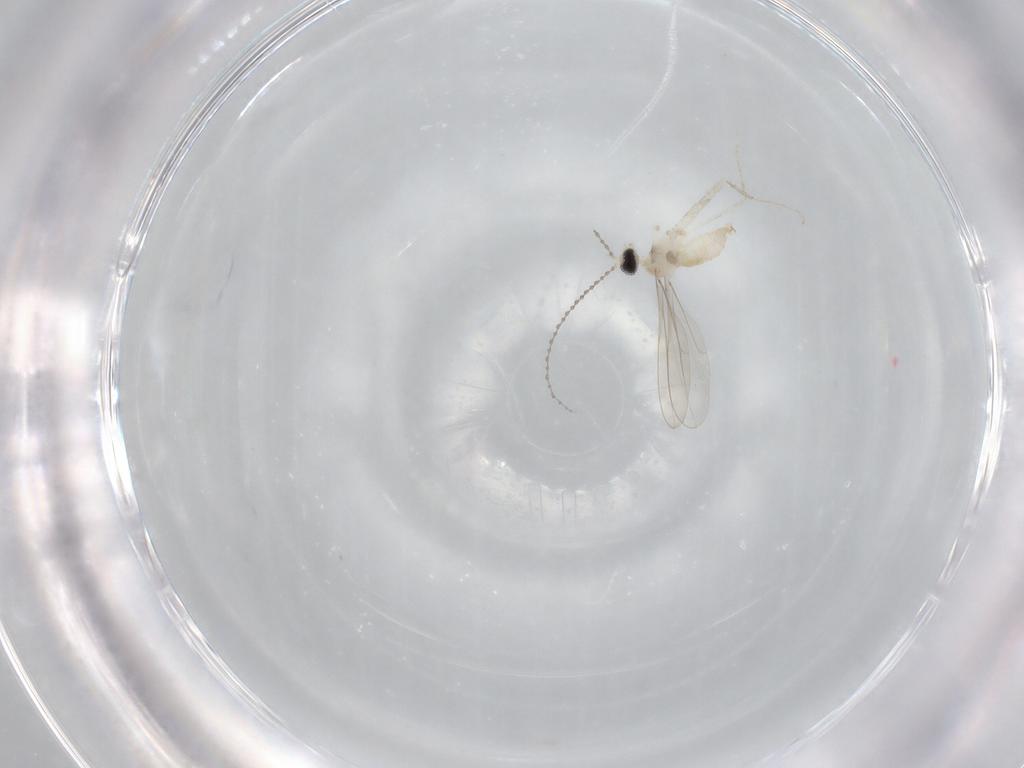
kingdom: Animalia
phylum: Arthropoda
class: Insecta
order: Diptera
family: Cecidomyiidae
